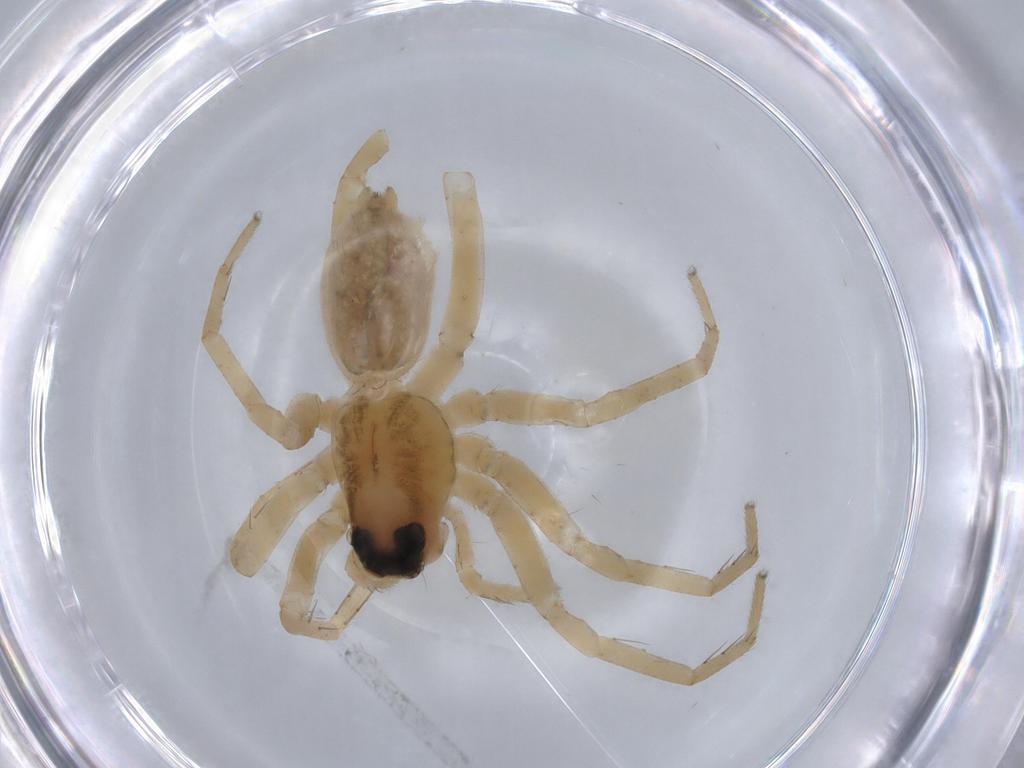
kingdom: Animalia
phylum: Arthropoda
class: Arachnida
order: Araneae
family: Lycosidae
